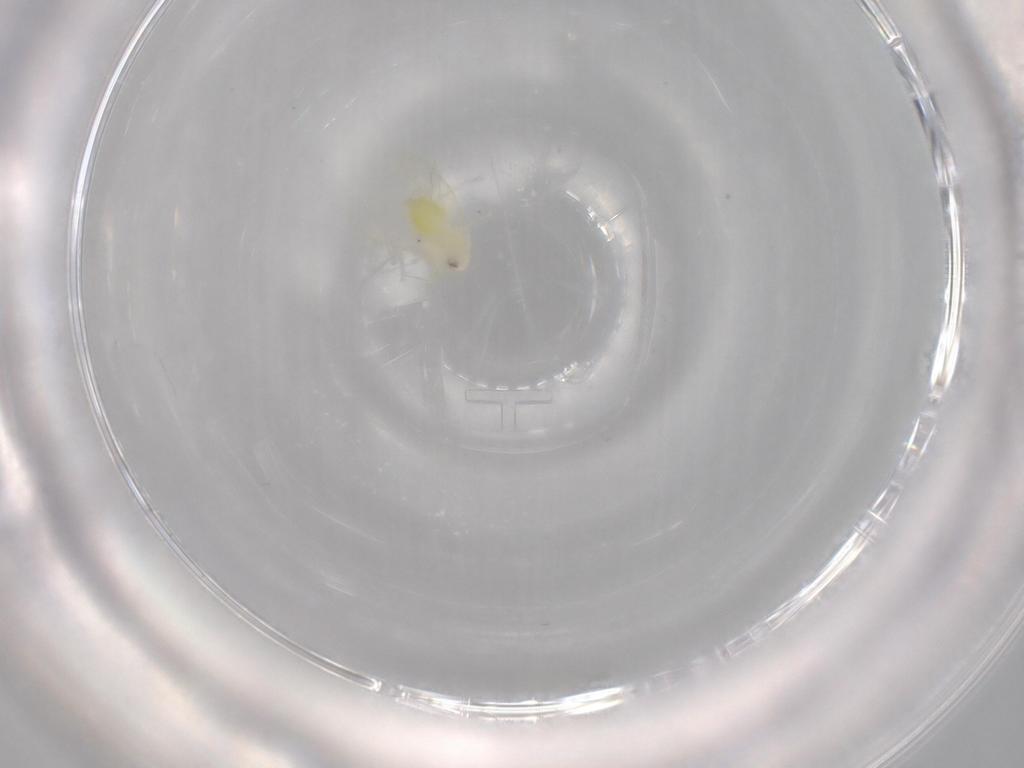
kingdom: Animalia
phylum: Arthropoda
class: Insecta
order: Hemiptera
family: Aleyrodidae
